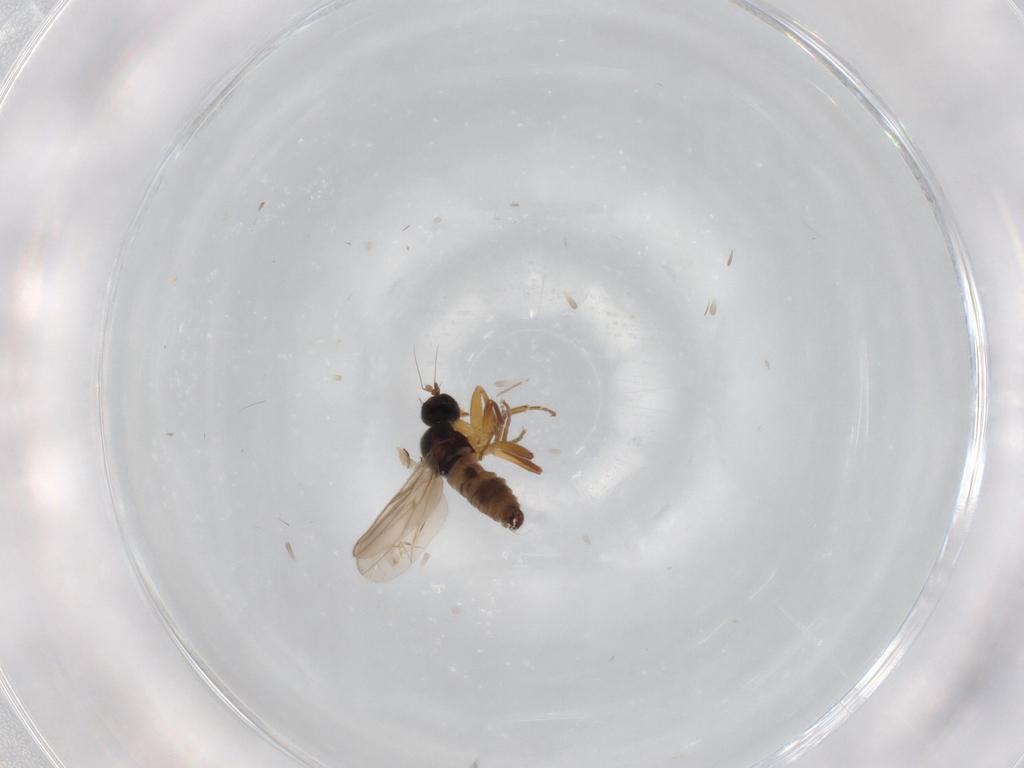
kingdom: Animalia
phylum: Arthropoda
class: Insecta
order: Diptera
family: Hybotidae
